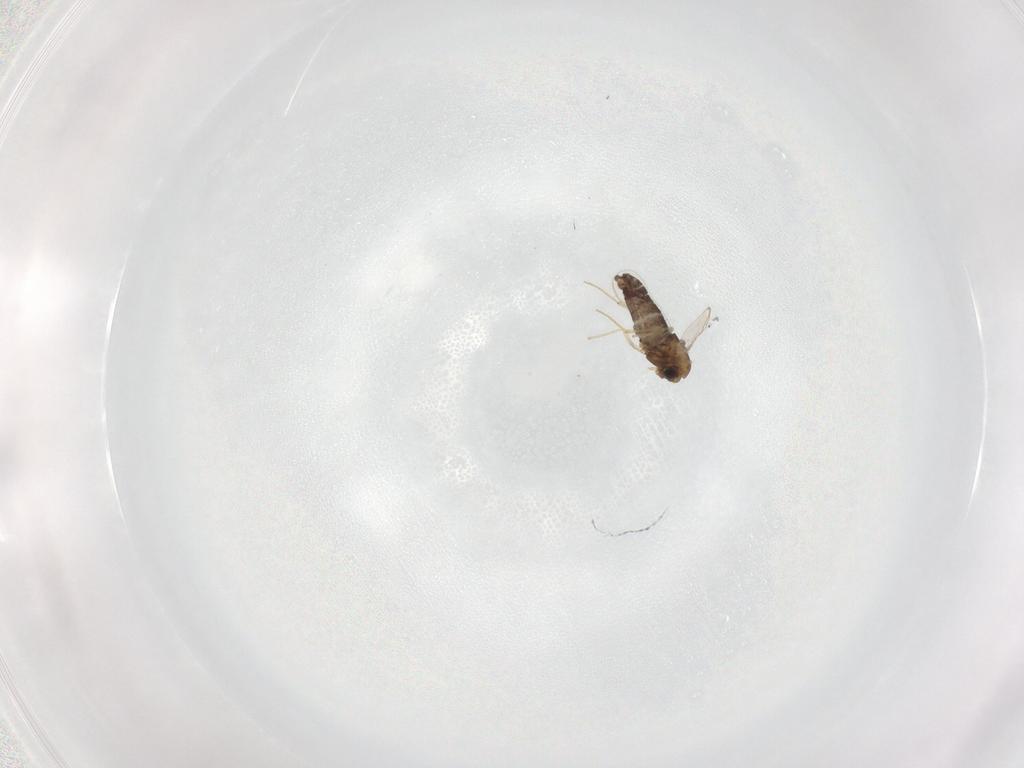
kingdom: Animalia
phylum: Arthropoda
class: Insecta
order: Diptera
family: Chironomidae
